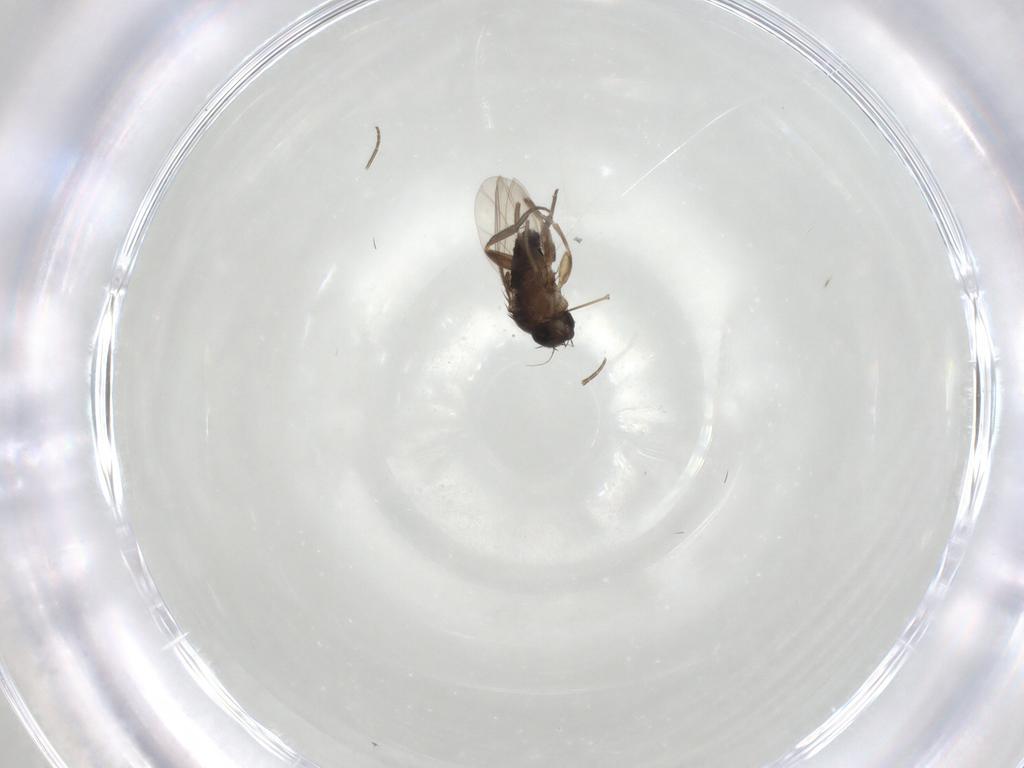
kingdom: Animalia
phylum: Arthropoda
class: Insecta
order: Diptera
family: Phoridae
